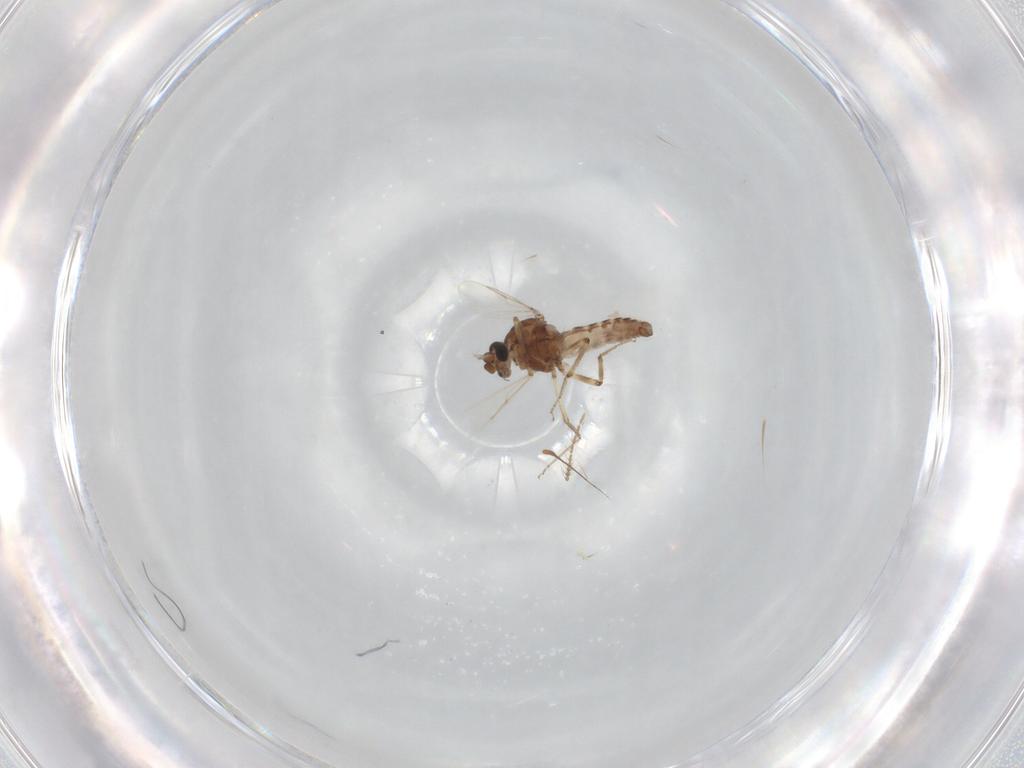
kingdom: Animalia
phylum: Arthropoda
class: Insecta
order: Diptera
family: Ceratopogonidae
